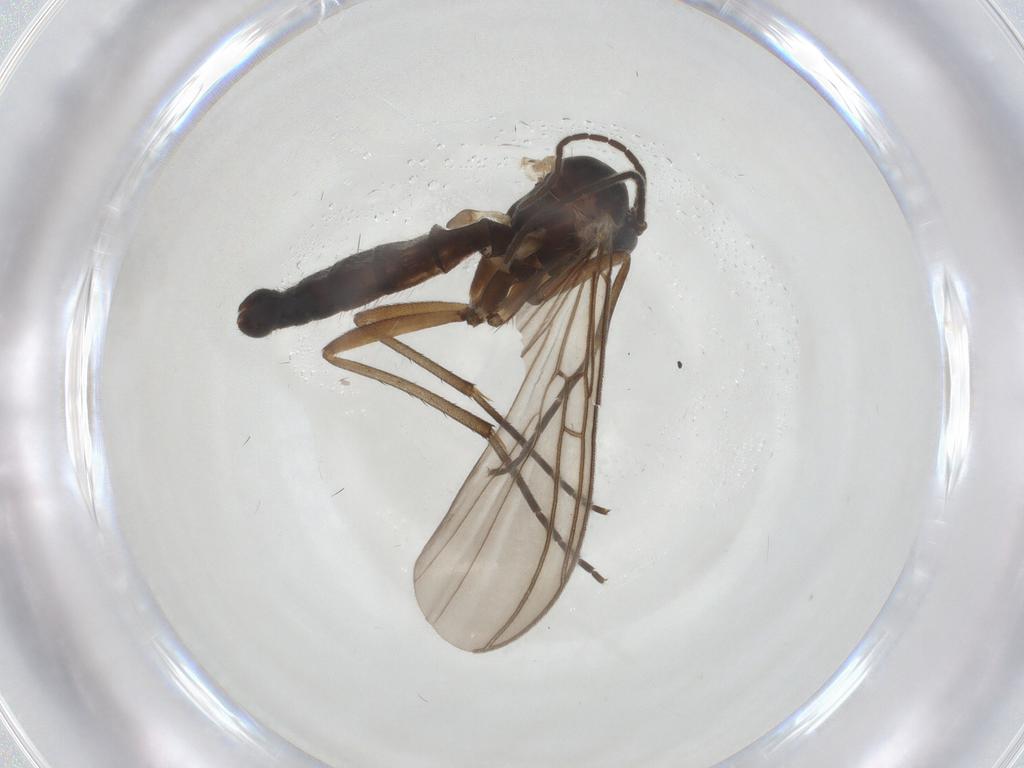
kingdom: Animalia
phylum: Arthropoda
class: Insecta
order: Diptera
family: Mycetophilidae
